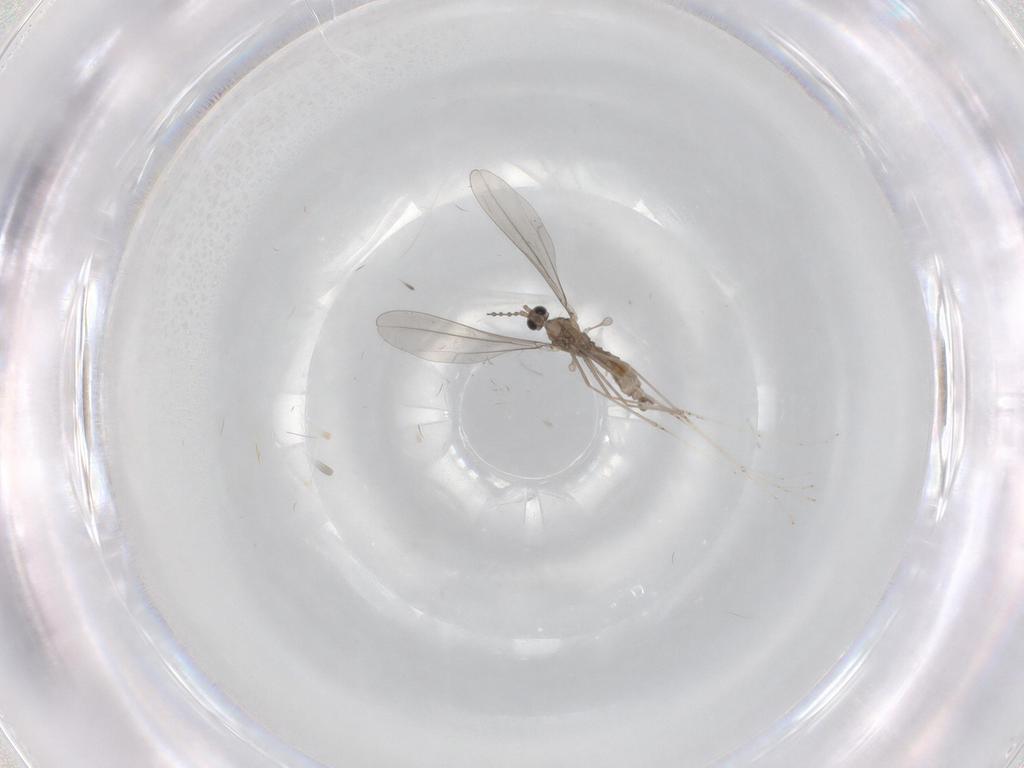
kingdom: Animalia
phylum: Arthropoda
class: Insecta
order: Diptera
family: Cecidomyiidae
